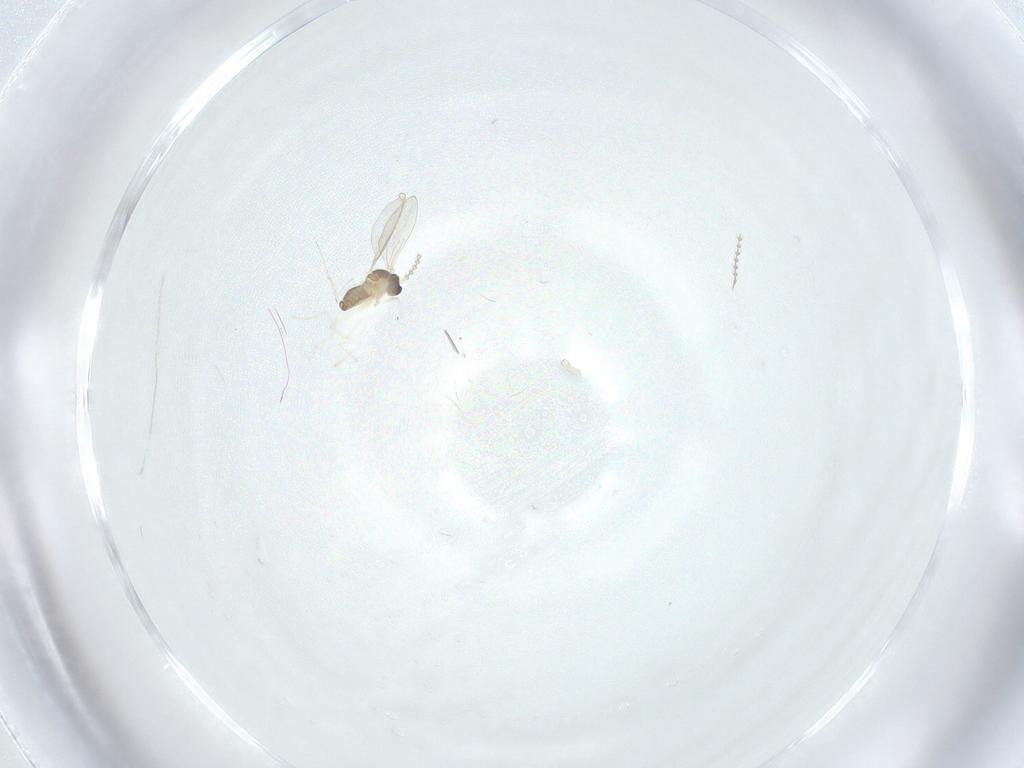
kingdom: Animalia
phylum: Arthropoda
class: Insecta
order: Diptera
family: Cecidomyiidae
